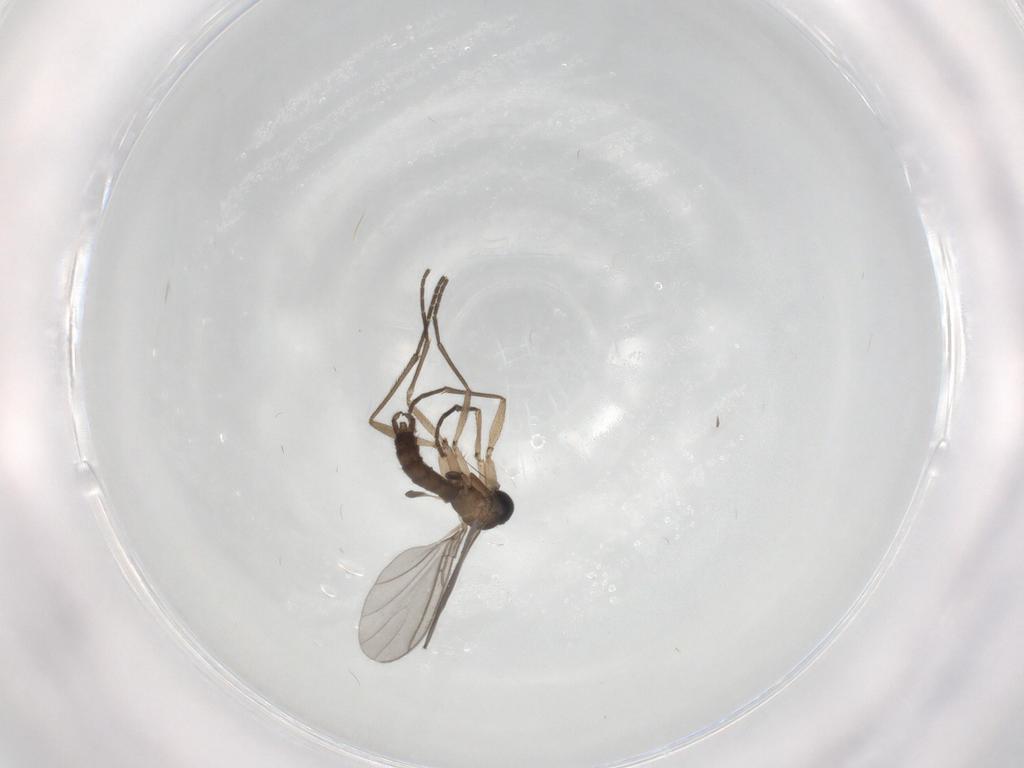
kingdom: Animalia
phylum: Arthropoda
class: Insecta
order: Diptera
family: Sciaridae
